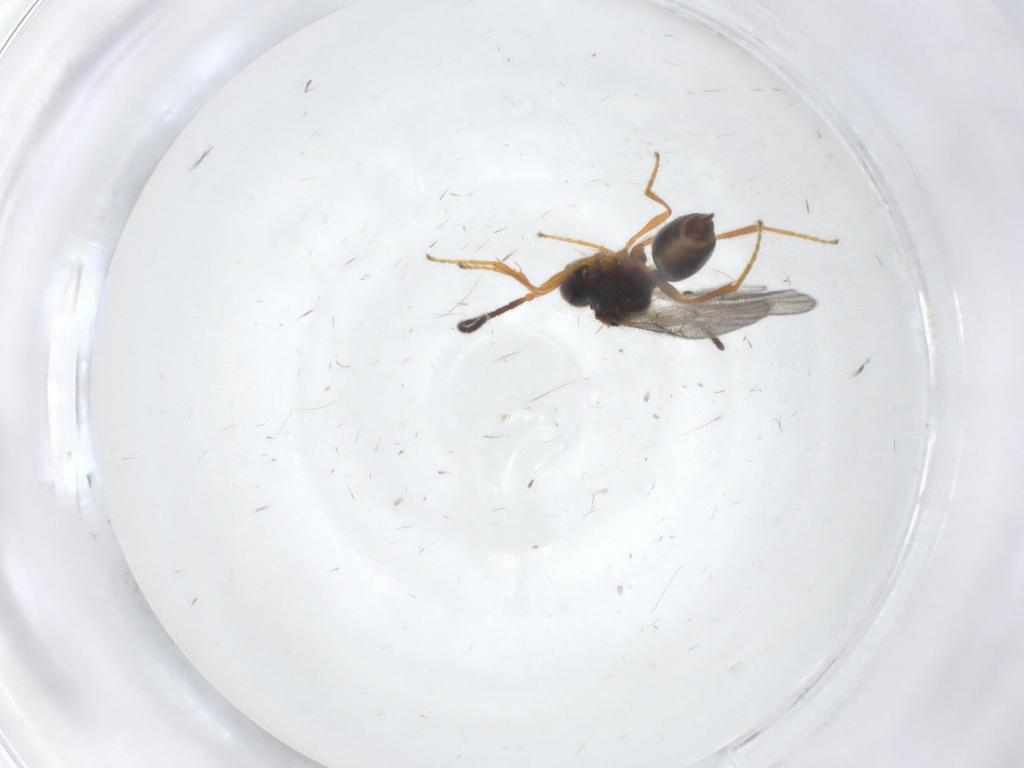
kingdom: Animalia
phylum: Arthropoda
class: Insecta
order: Hymenoptera
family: Diapriidae
